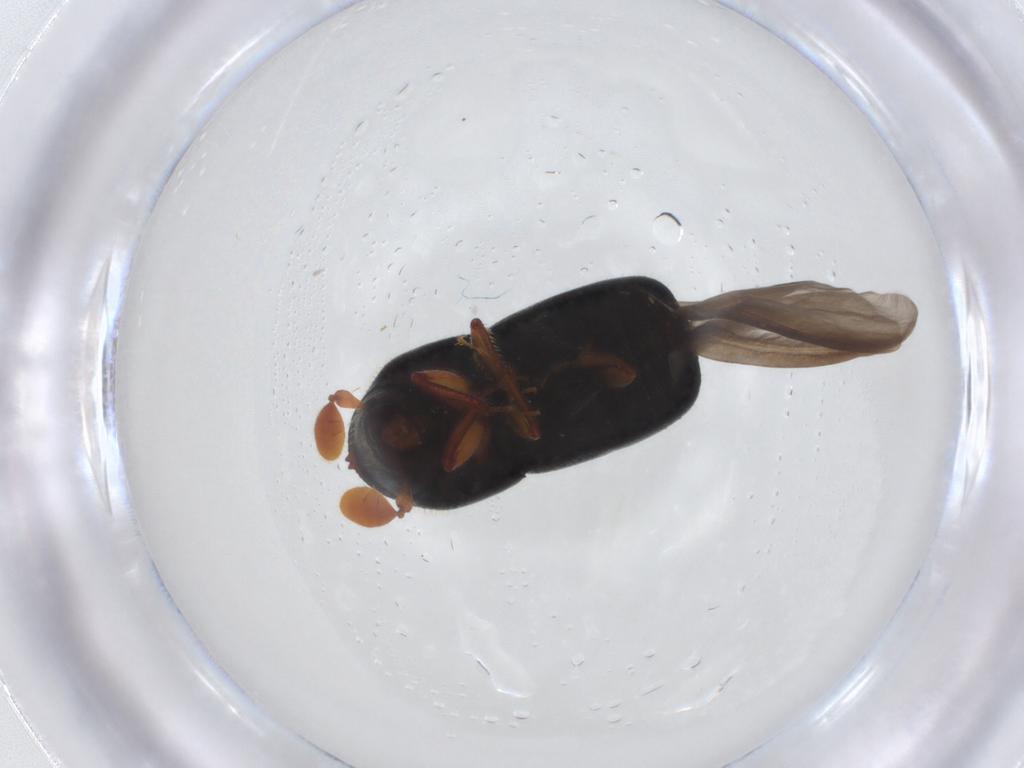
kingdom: Animalia
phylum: Arthropoda
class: Insecta
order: Coleoptera
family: Curculionidae
